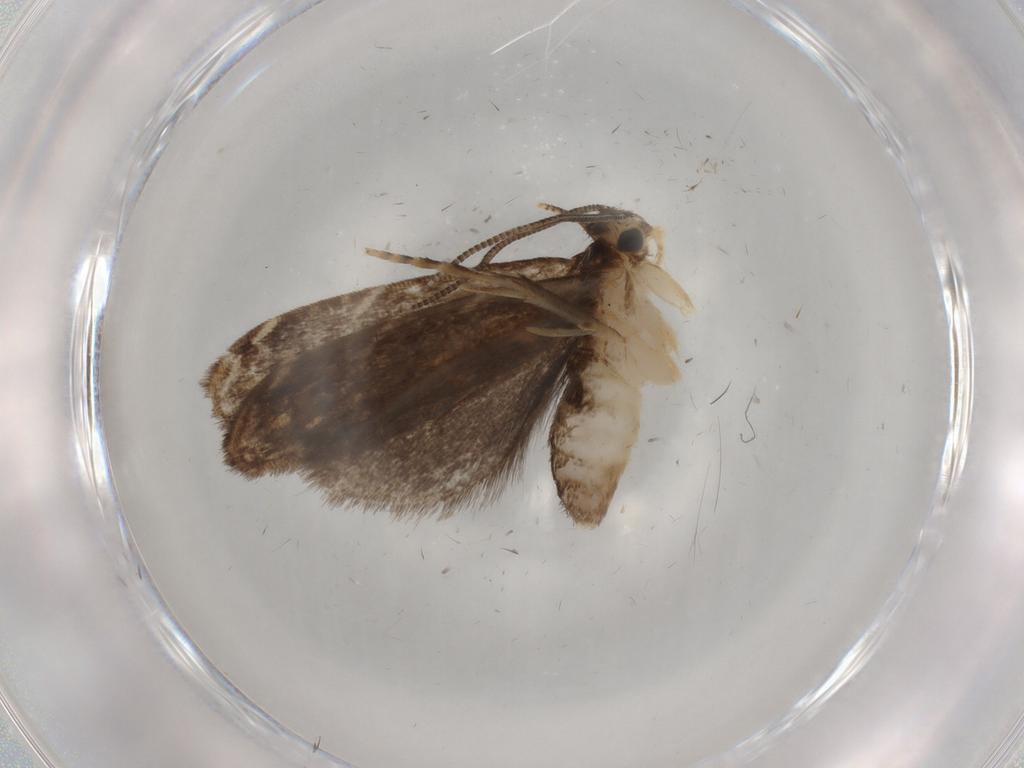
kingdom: Animalia
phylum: Arthropoda
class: Insecta
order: Lepidoptera
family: Dryadaulidae
